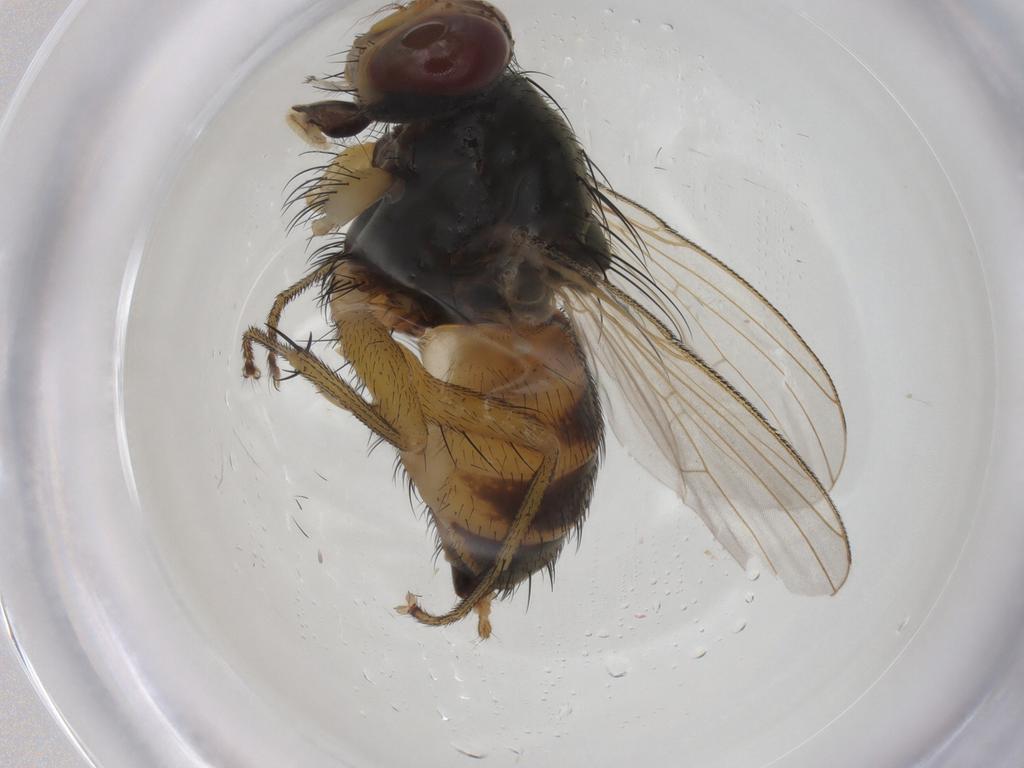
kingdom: Animalia
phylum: Arthropoda
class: Insecta
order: Diptera
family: Muscidae
